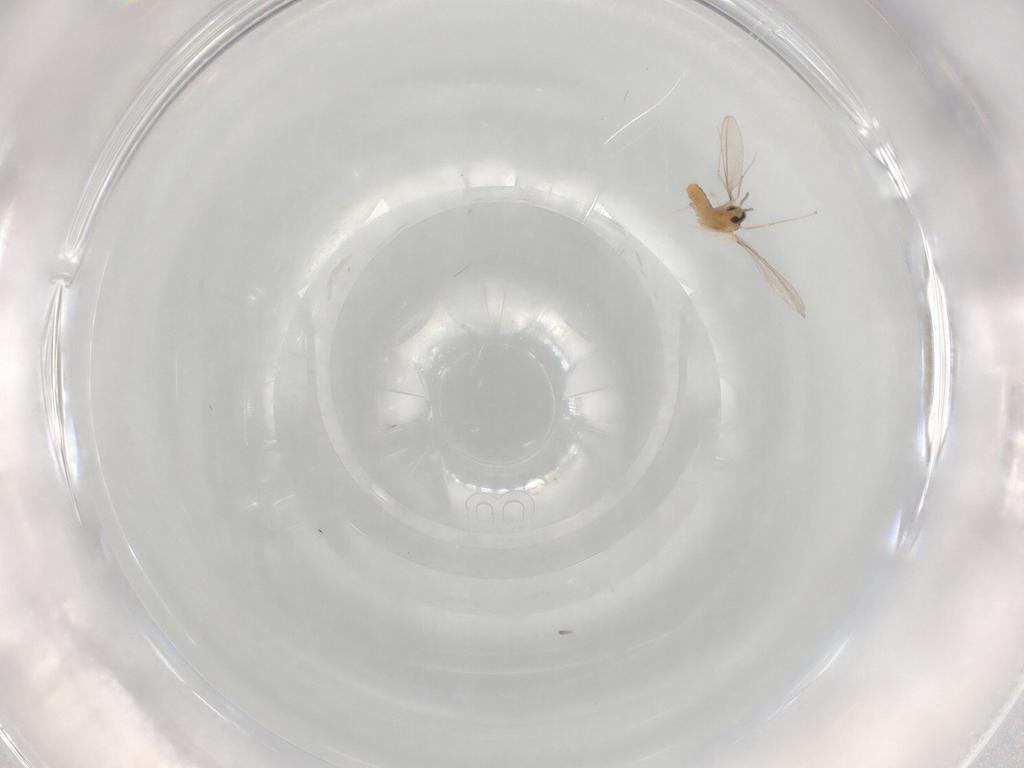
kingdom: Animalia
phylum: Arthropoda
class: Insecta
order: Diptera
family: Cecidomyiidae
